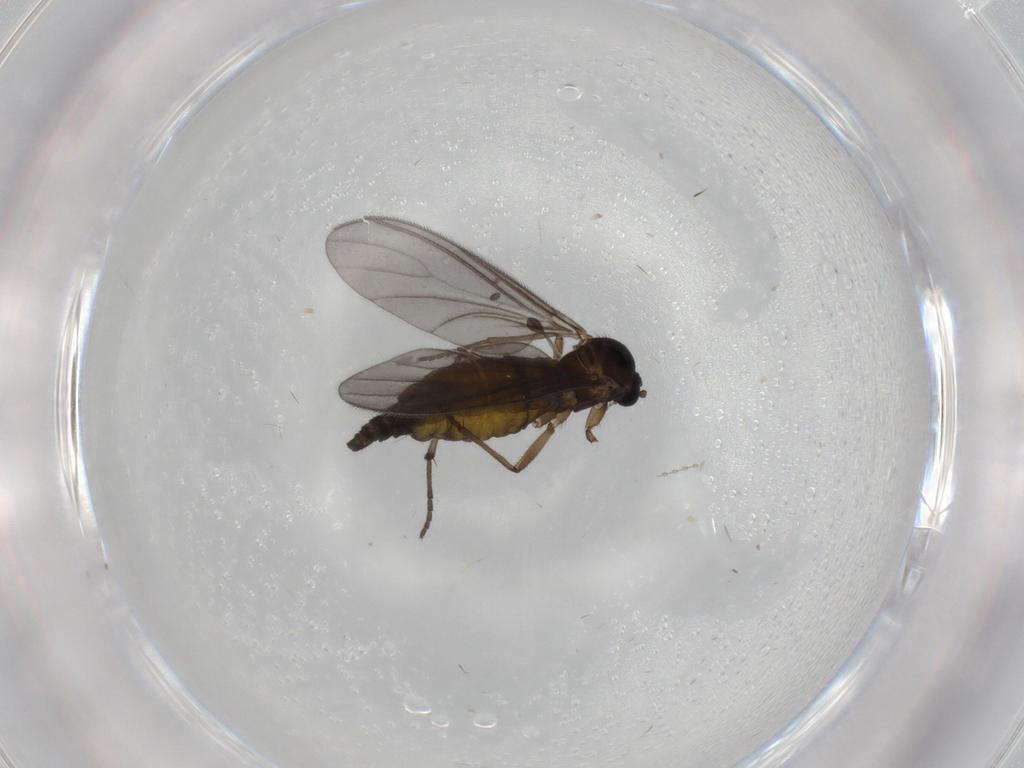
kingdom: Animalia
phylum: Arthropoda
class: Insecta
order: Diptera
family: Sciaridae
